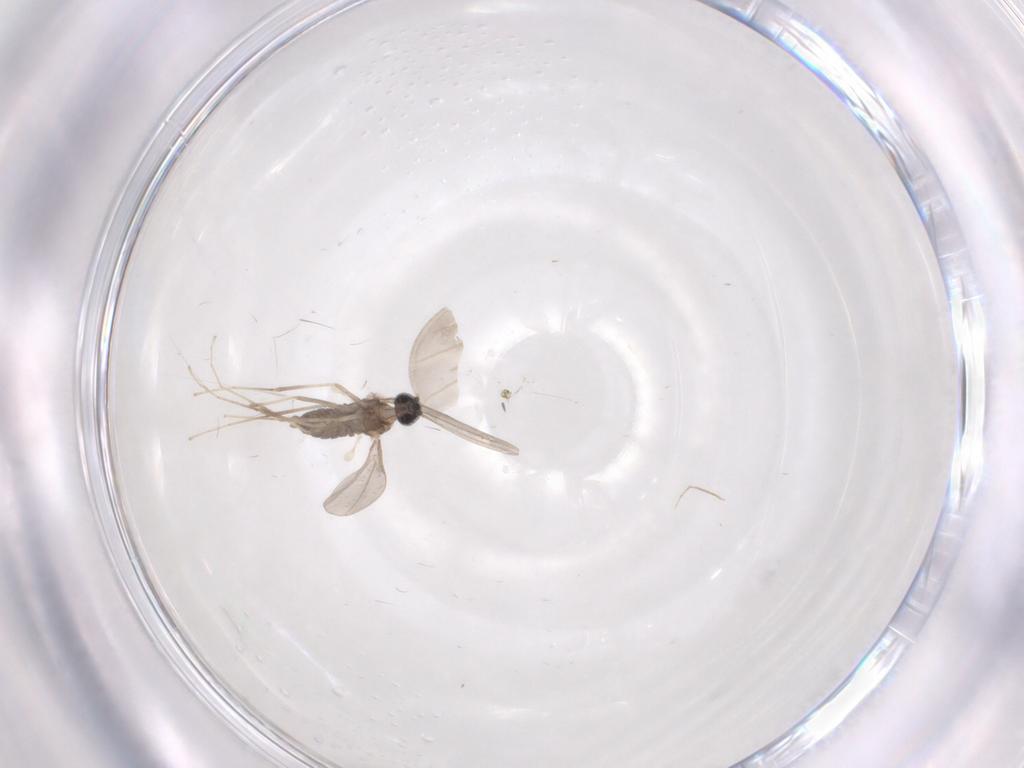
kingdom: Animalia
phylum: Arthropoda
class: Insecta
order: Diptera
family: Cecidomyiidae
